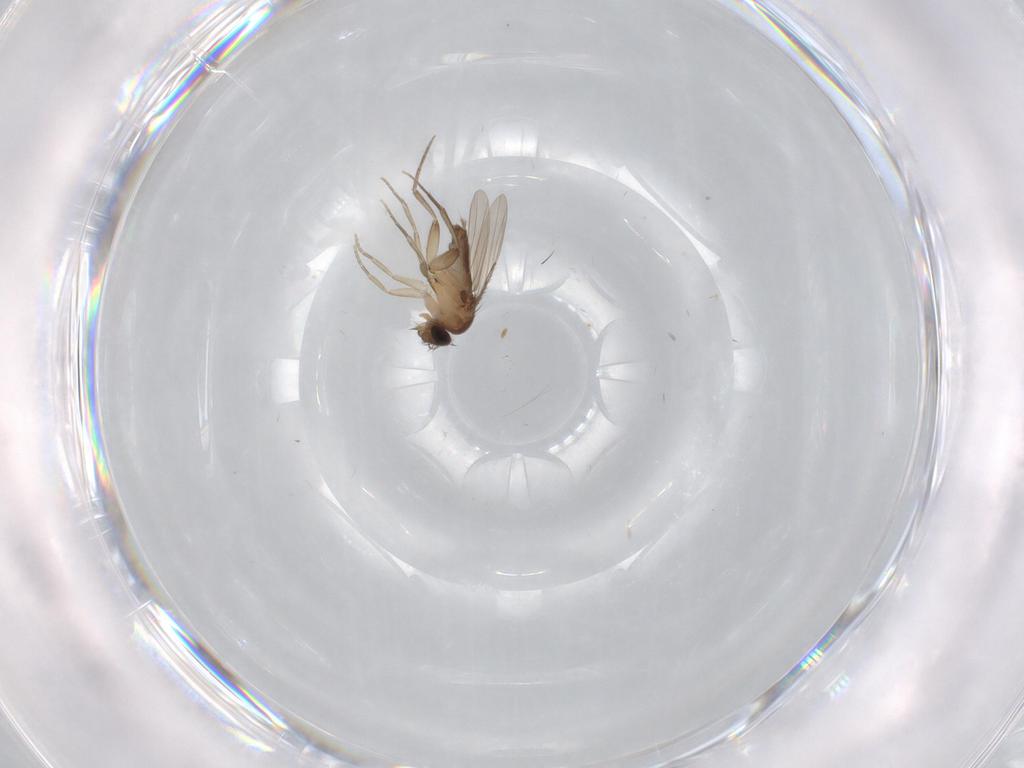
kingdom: Animalia
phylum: Arthropoda
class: Insecta
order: Diptera
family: Phoridae
